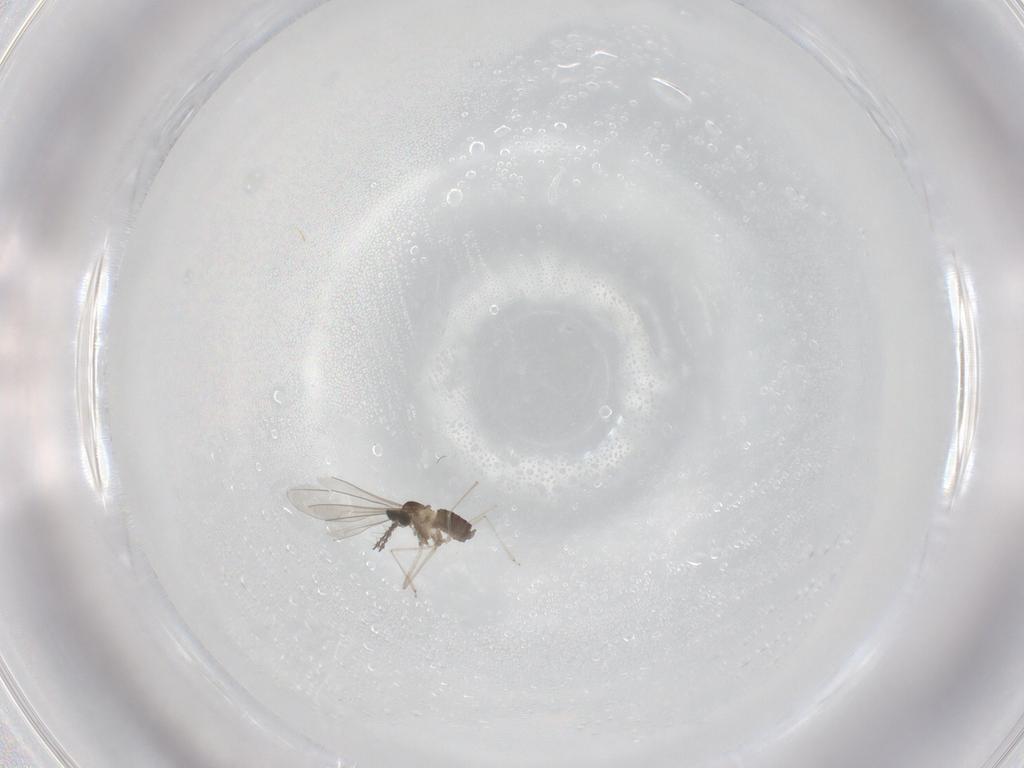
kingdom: Animalia
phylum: Arthropoda
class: Insecta
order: Diptera
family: Cecidomyiidae
